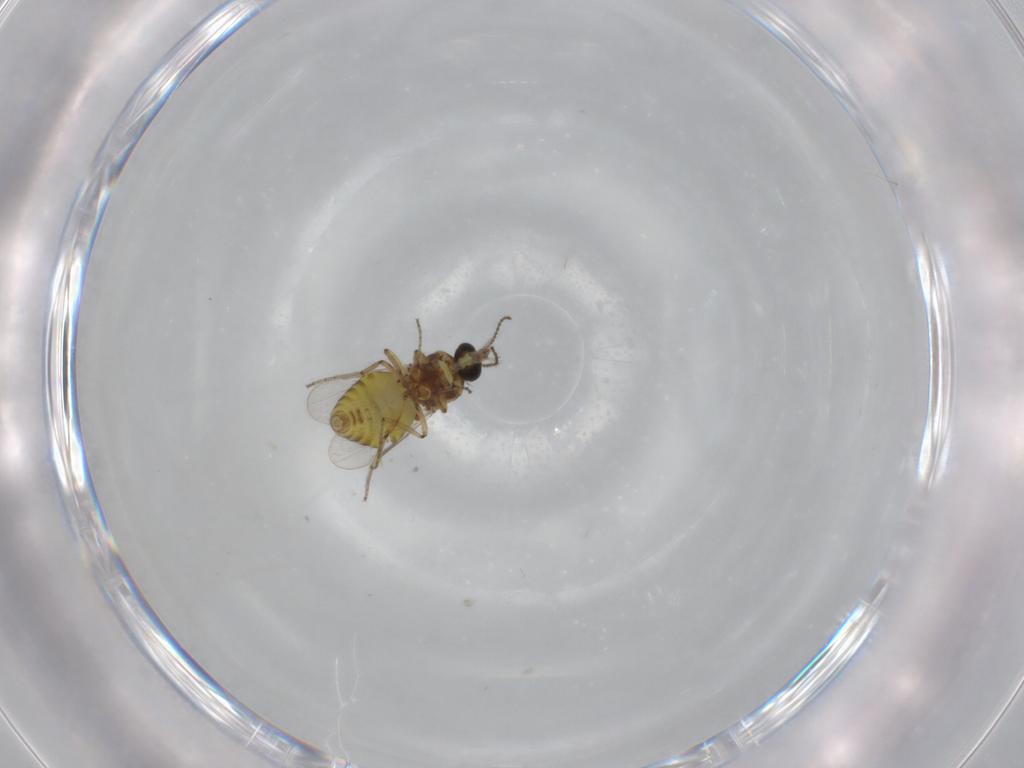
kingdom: Animalia
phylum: Arthropoda
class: Insecta
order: Diptera
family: Ceratopogonidae
